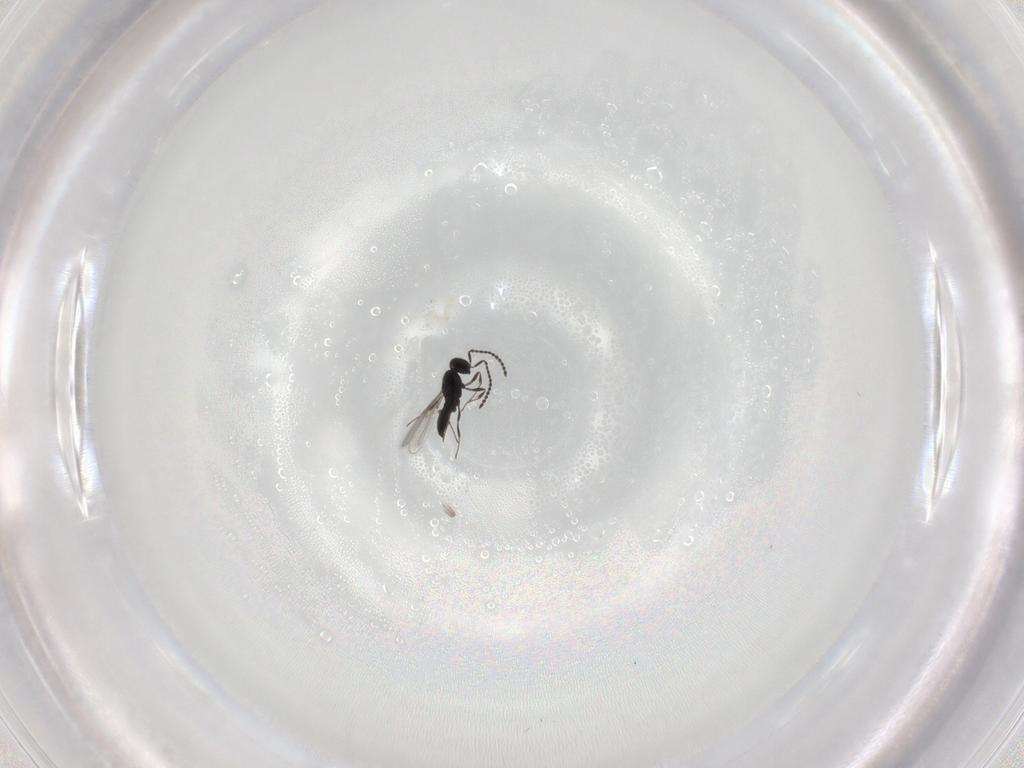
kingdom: Animalia
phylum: Arthropoda
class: Insecta
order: Hymenoptera
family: Scelionidae
